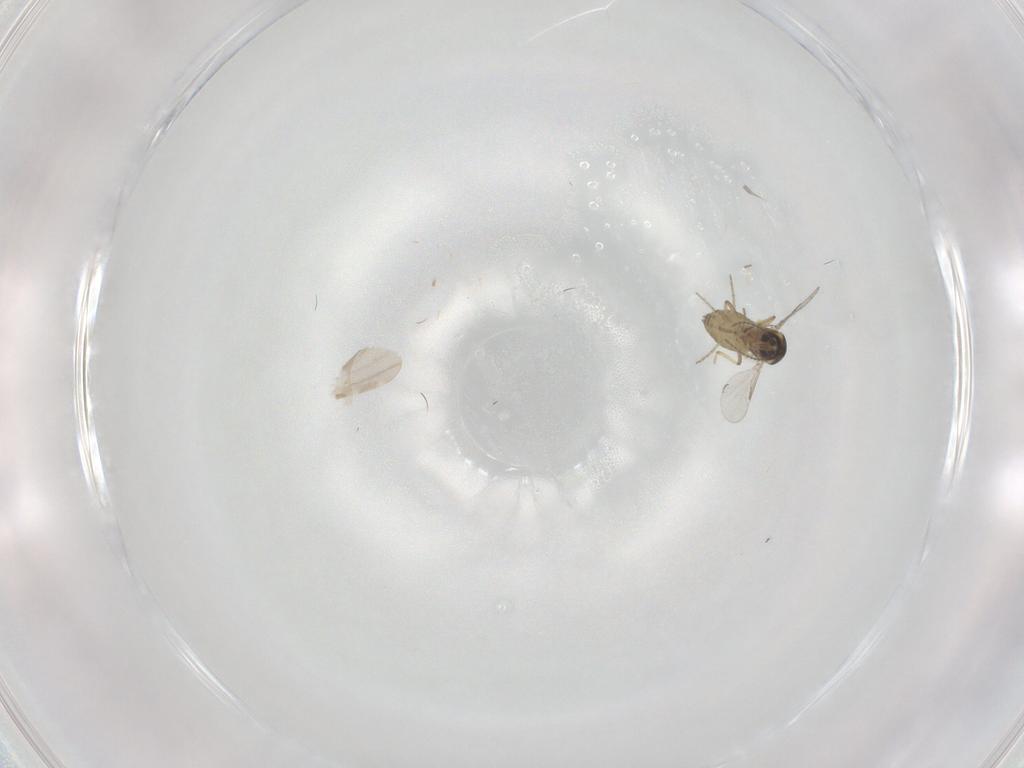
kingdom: Animalia
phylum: Arthropoda
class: Insecta
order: Diptera
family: Ceratopogonidae
